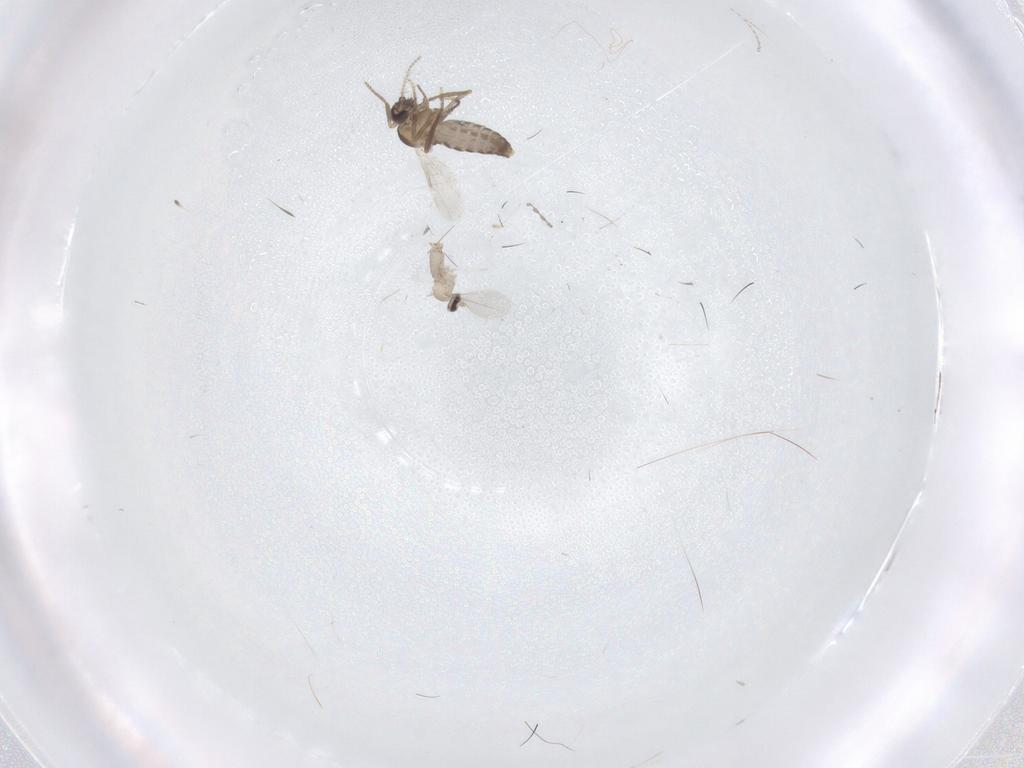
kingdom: Animalia
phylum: Arthropoda
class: Insecta
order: Diptera
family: Ceratopogonidae
